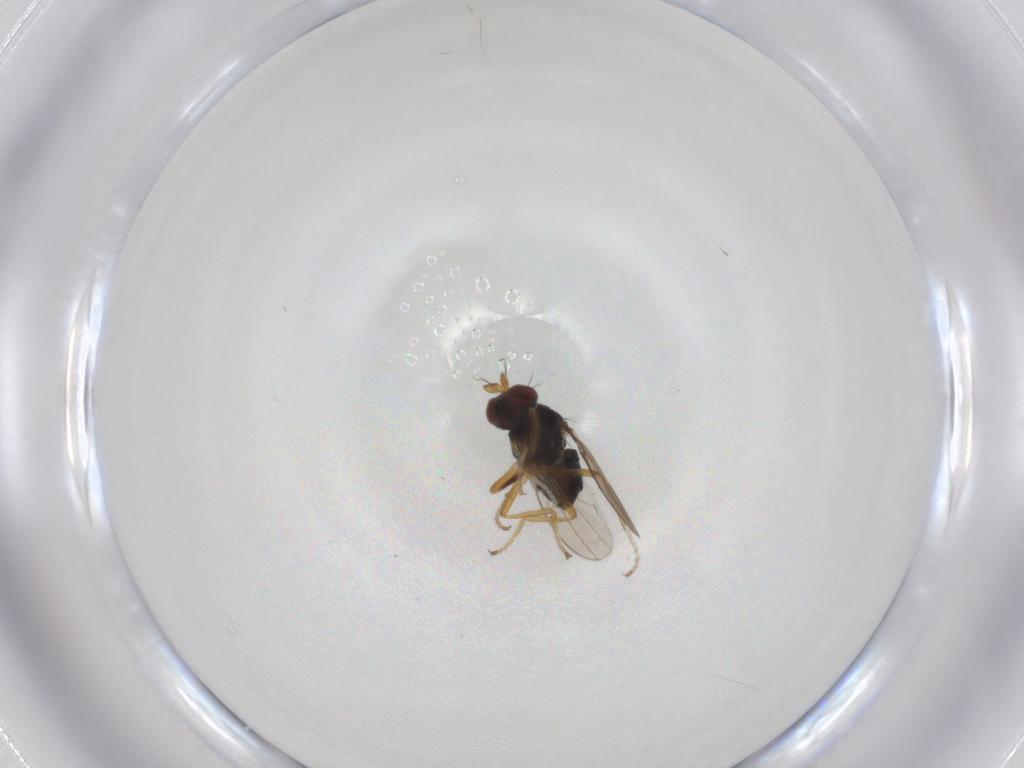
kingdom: Animalia
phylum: Arthropoda
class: Insecta
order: Diptera
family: Ephydridae
